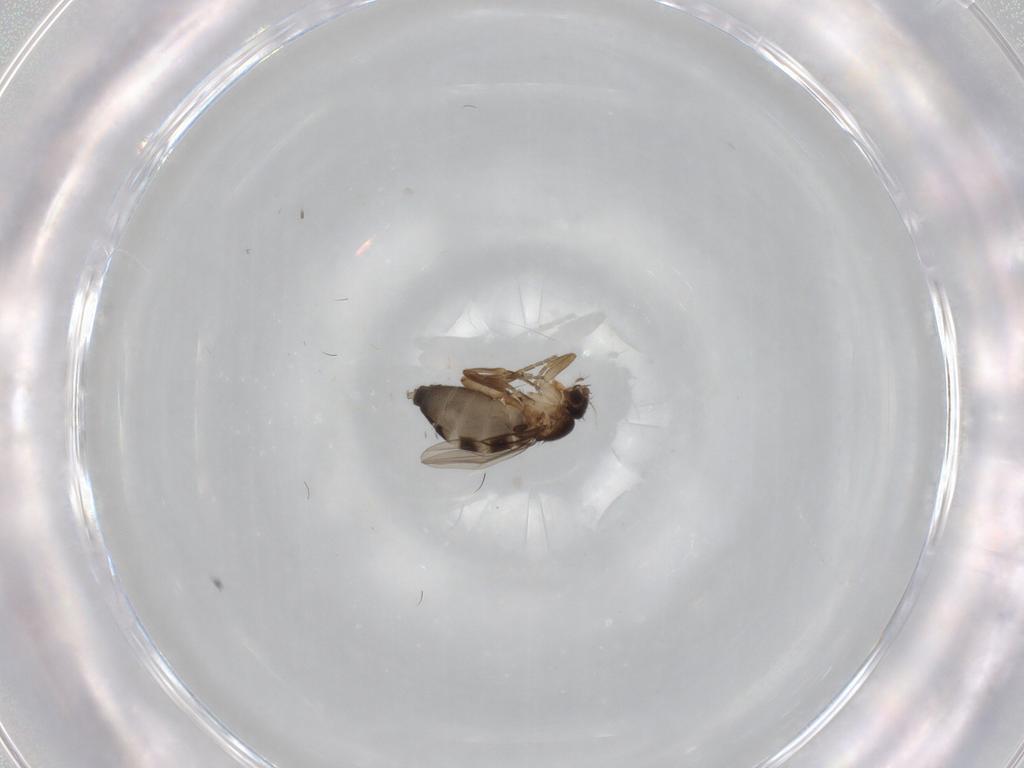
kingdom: Animalia
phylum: Arthropoda
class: Insecta
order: Diptera
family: Phoridae
